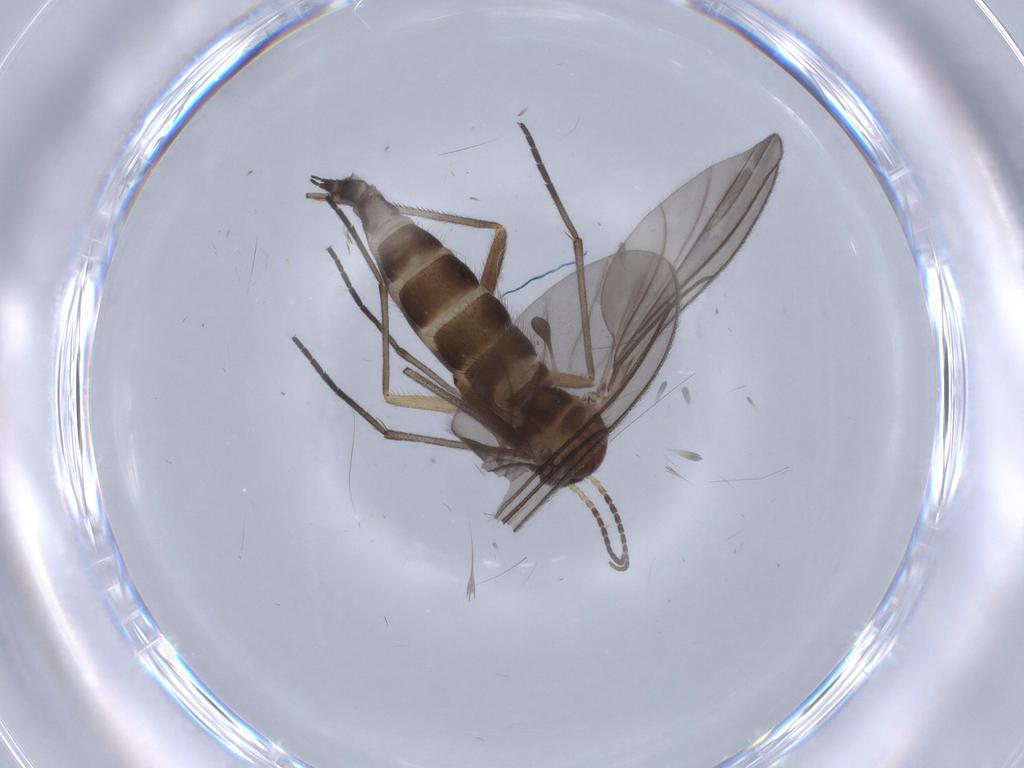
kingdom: Animalia
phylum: Arthropoda
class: Insecta
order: Diptera
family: Sciaridae
